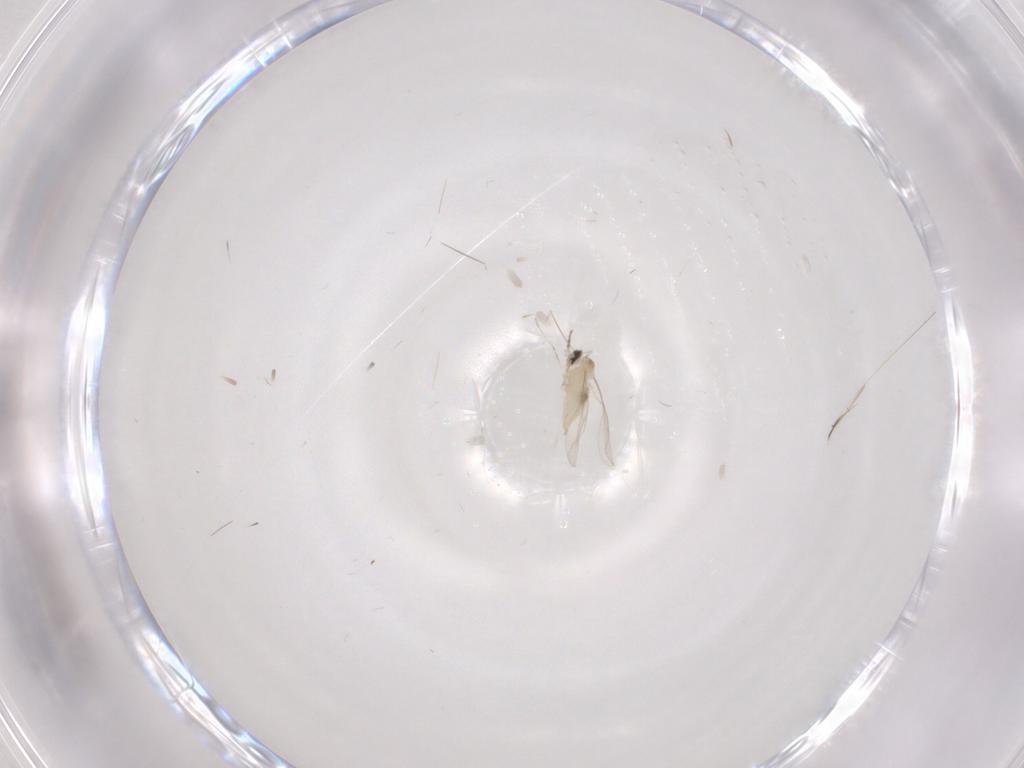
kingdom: Animalia
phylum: Arthropoda
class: Insecta
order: Diptera
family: Cecidomyiidae
